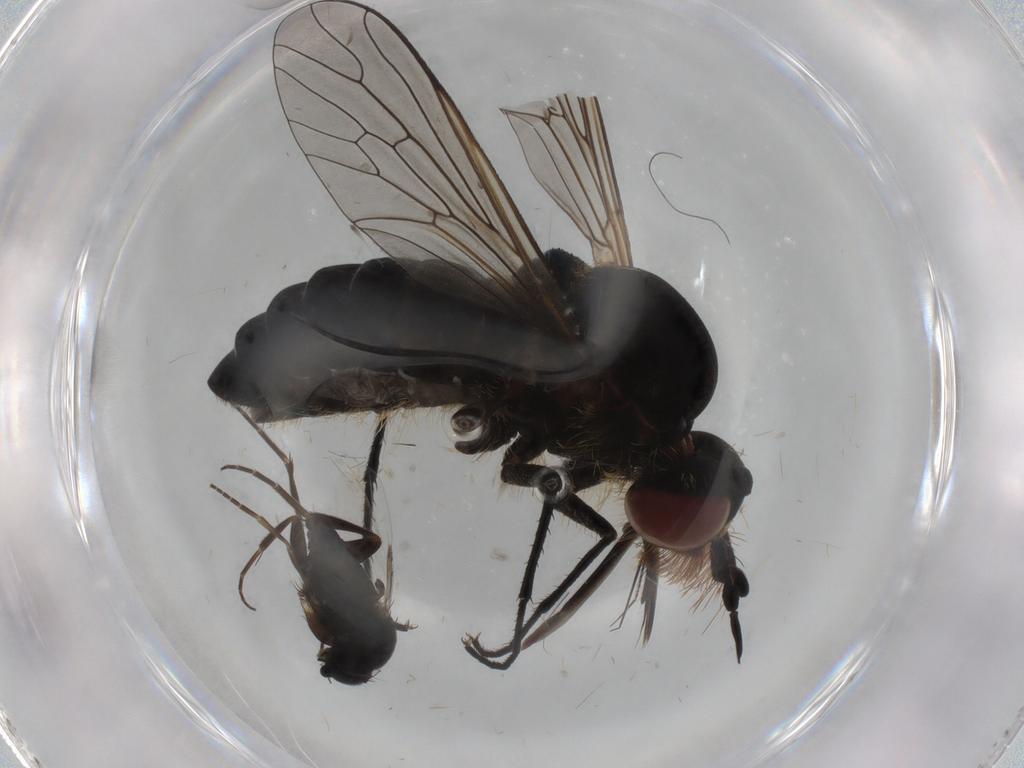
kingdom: Animalia
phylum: Arthropoda
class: Insecta
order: Diptera
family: Bombyliidae
